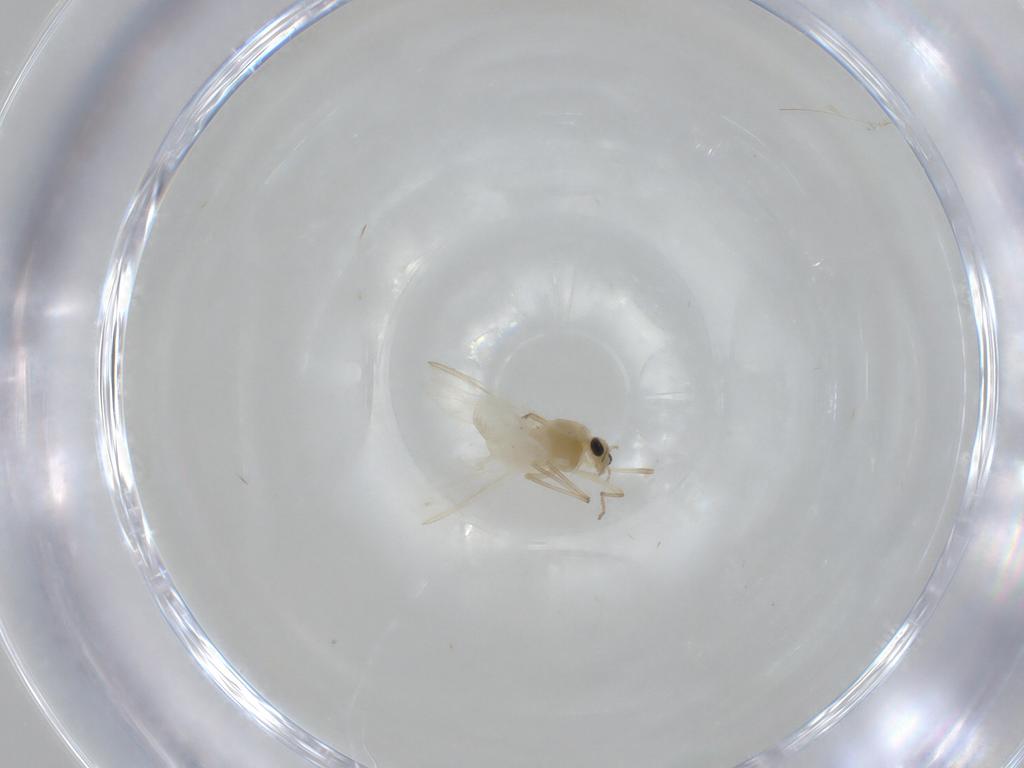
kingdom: Animalia
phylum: Arthropoda
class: Insecta
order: Diptera
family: Chironomidae
